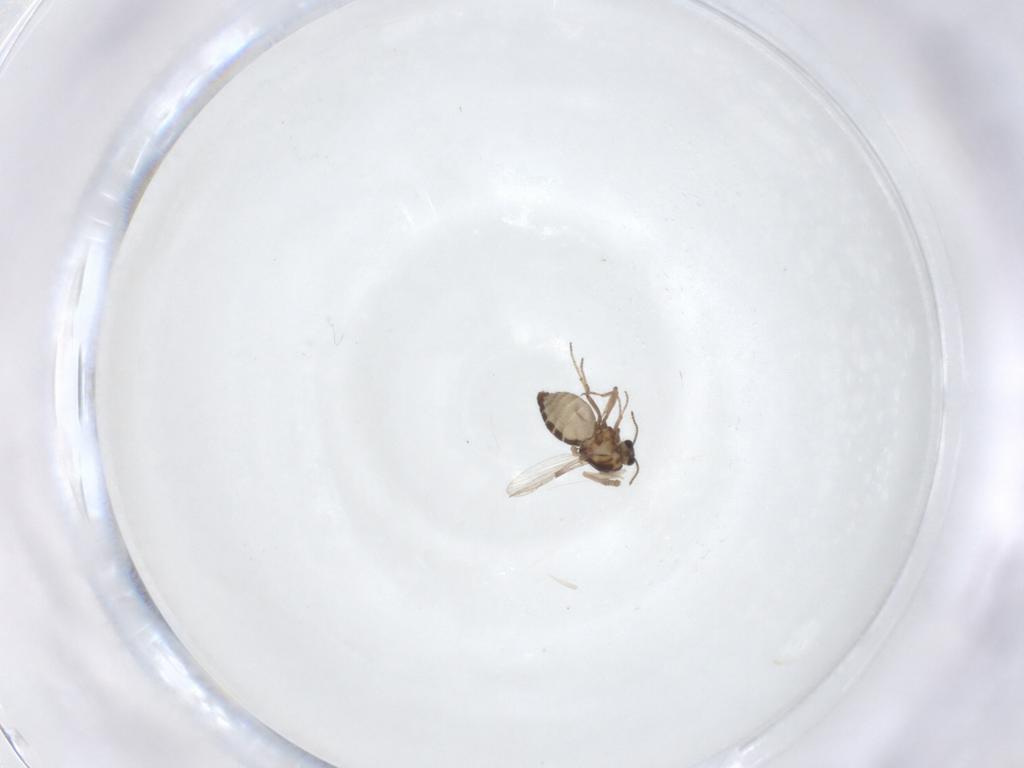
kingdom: Animalia
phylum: Arthropoda
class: Insecta
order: Diptera
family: Ceratopogonidae
